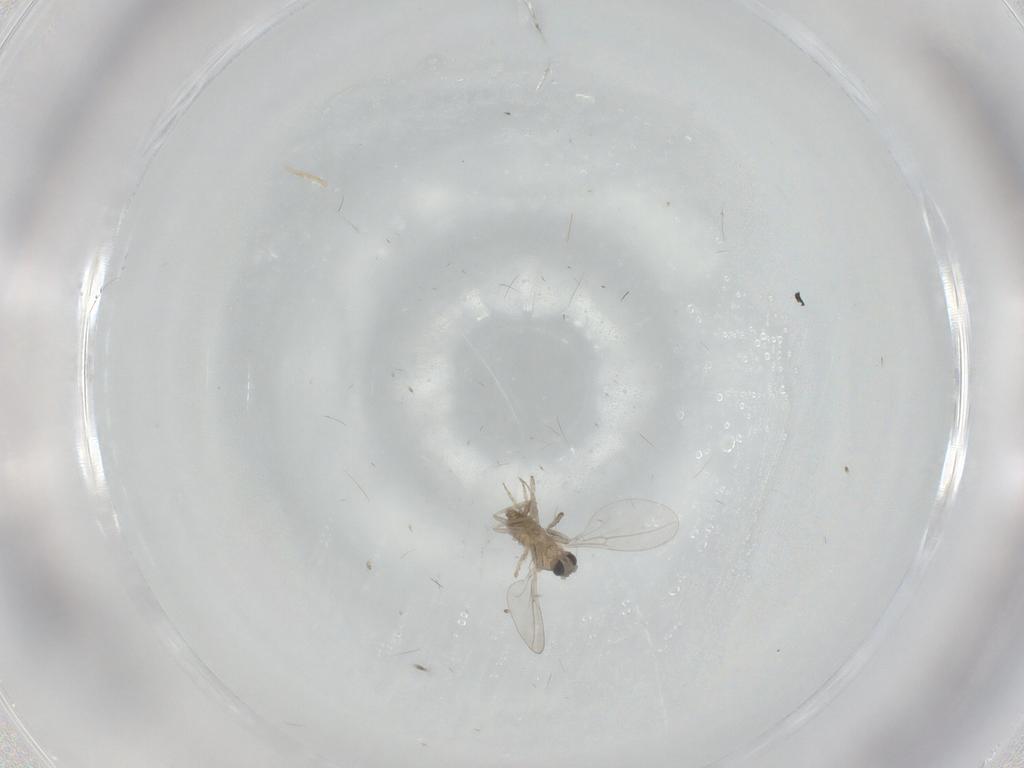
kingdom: Animalia
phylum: Arthropoda
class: Insecta
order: Diptera
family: Cecidomyiidae
